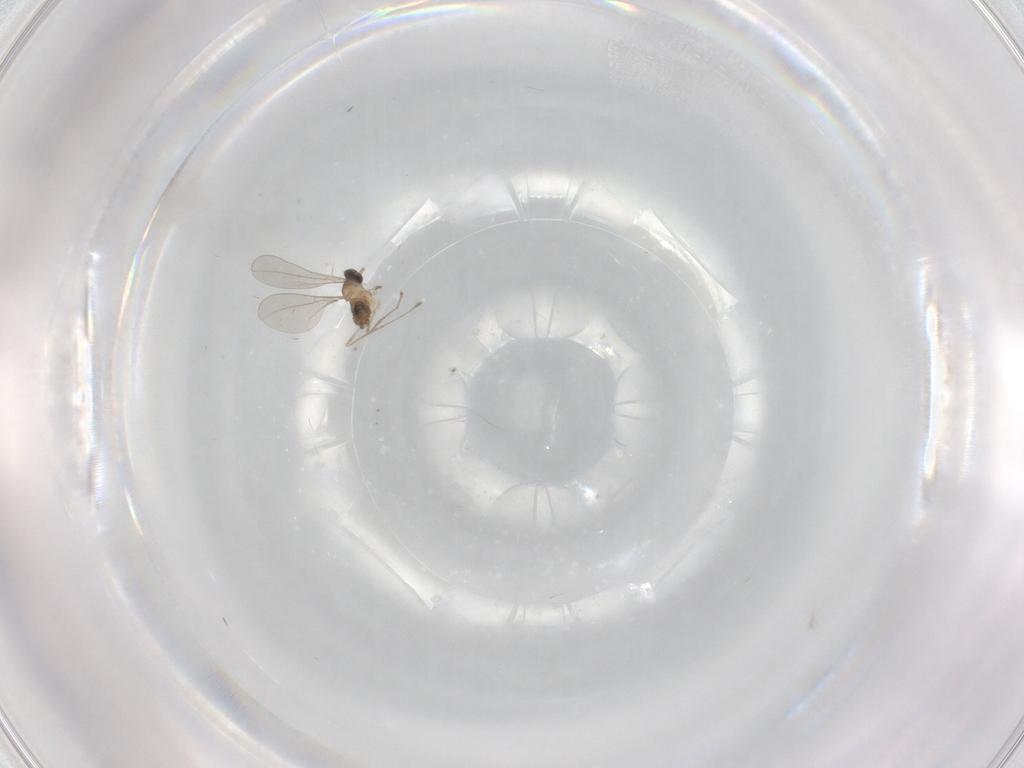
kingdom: Animalia
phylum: Arthropoda
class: Insecta
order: Diptera
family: Cecidomyiidae
